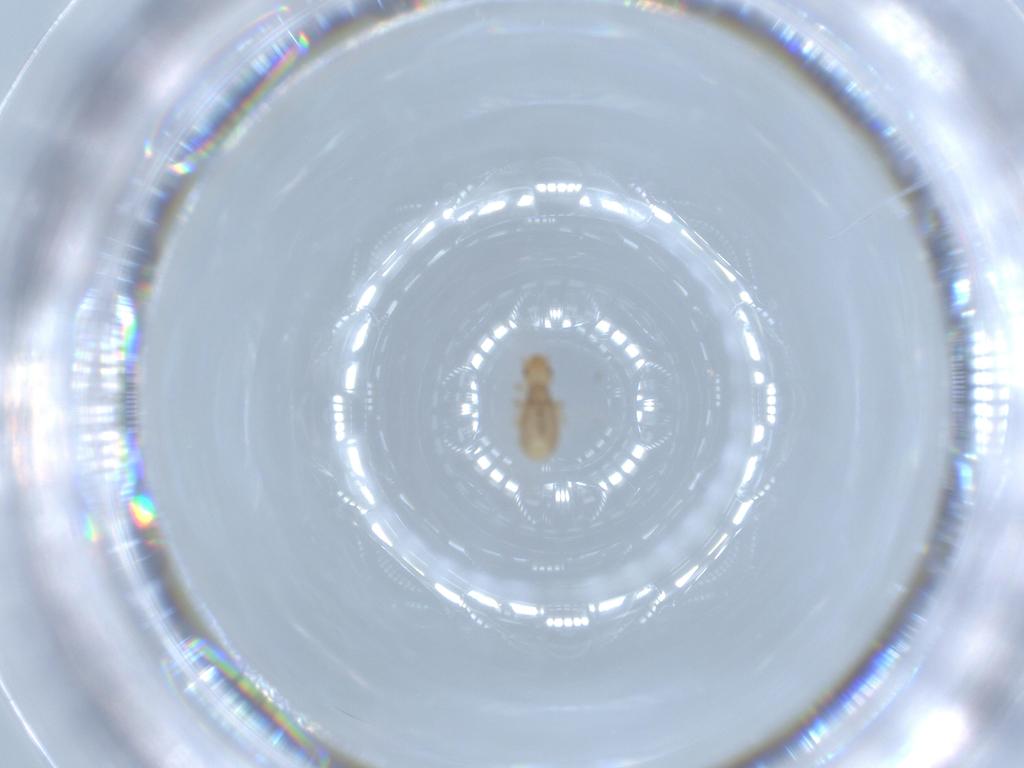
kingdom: Animalia
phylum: Arthropoda
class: Insecta
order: Psocodea
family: Liposcelididae
